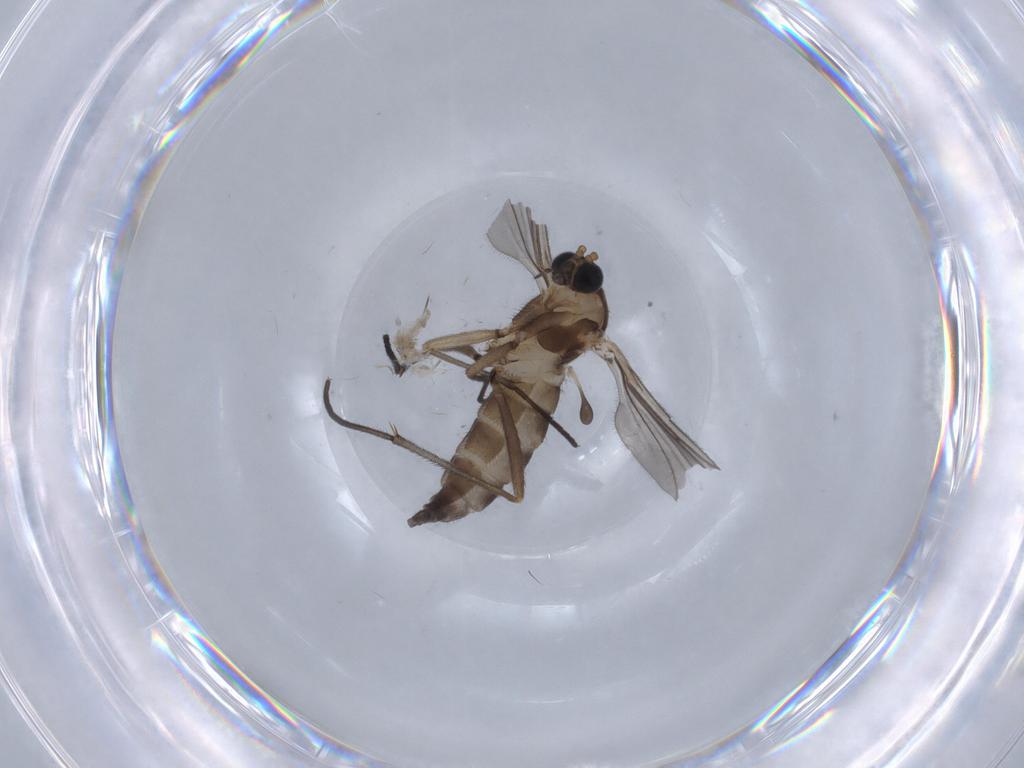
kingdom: Animalia
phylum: Arthropoda
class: Insecta
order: Diptera
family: Sciaridae
